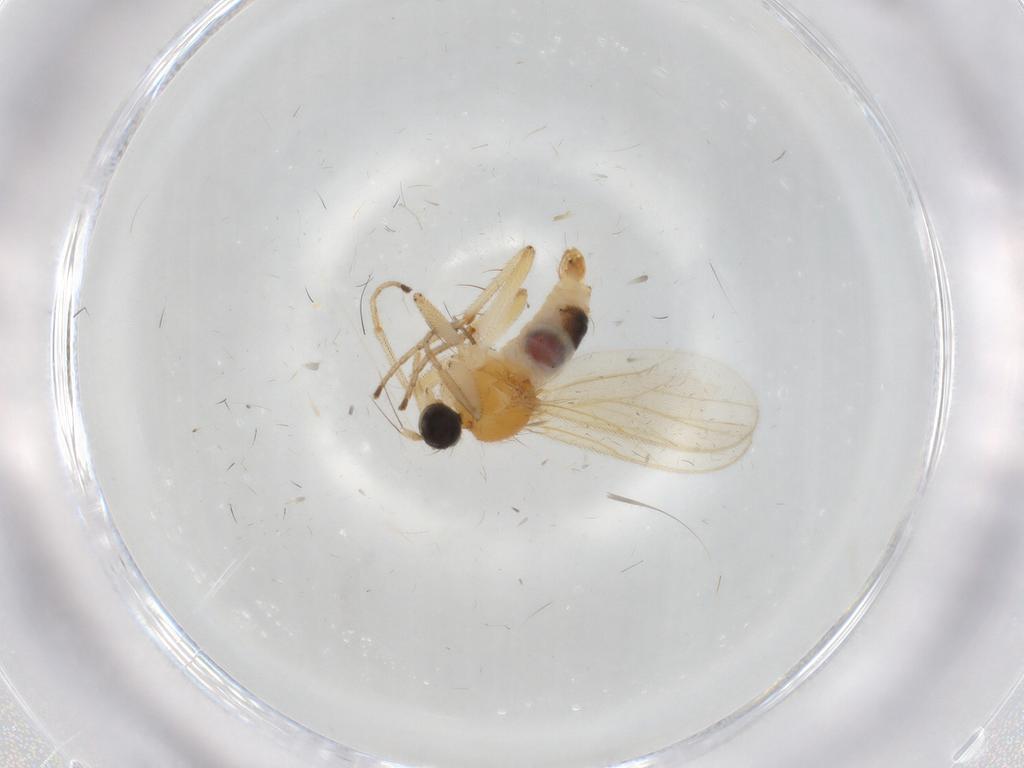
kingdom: Animalia
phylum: Arthropoda
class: Insecta
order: Diptera
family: Hybotidae
